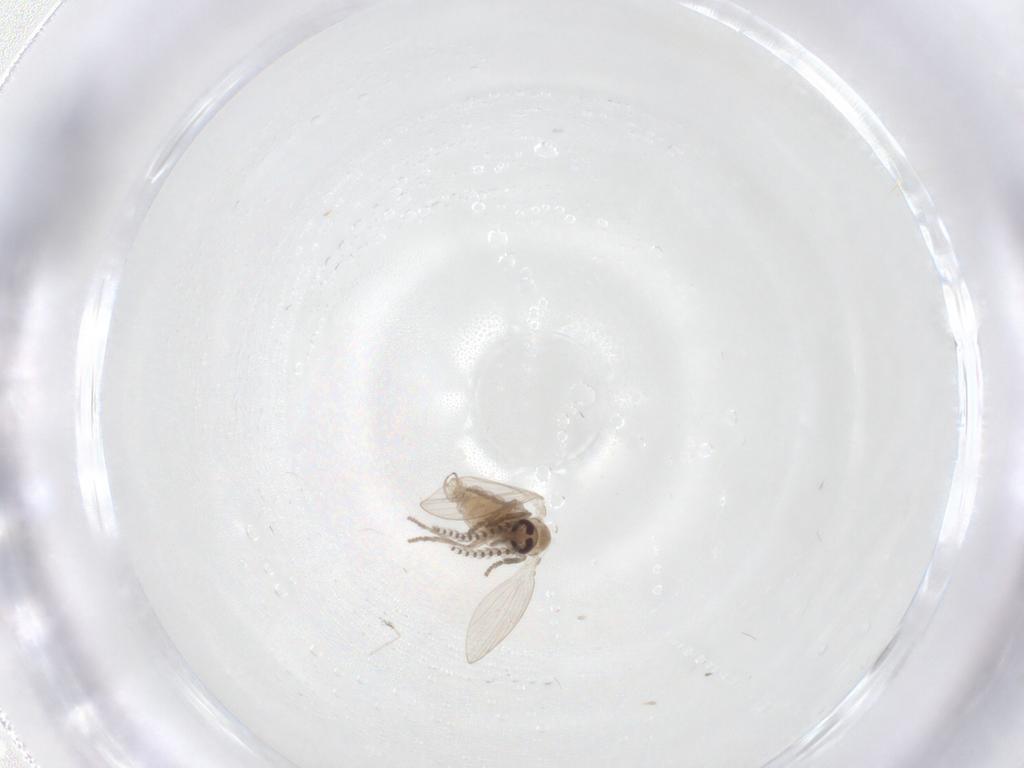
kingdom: Animalia
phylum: Arthropoda
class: Insecta
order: Diptera
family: Psychodidae
